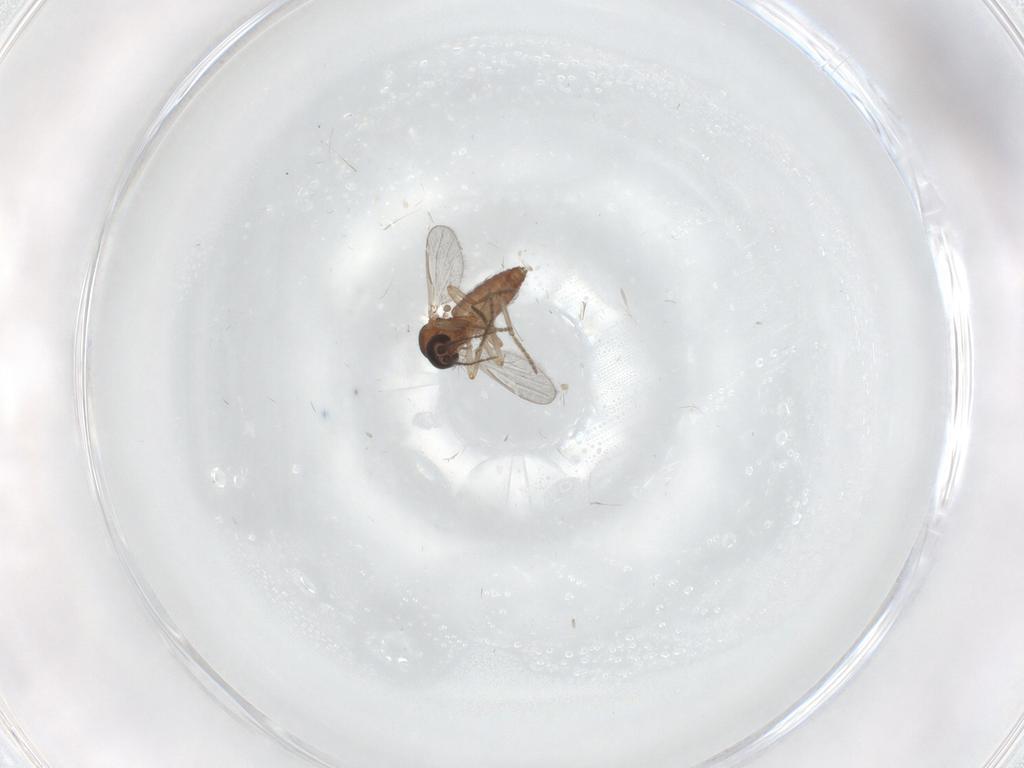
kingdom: Animalia
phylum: Arthropoda
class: Insecta
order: Diptera
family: Ceratopogonidae
